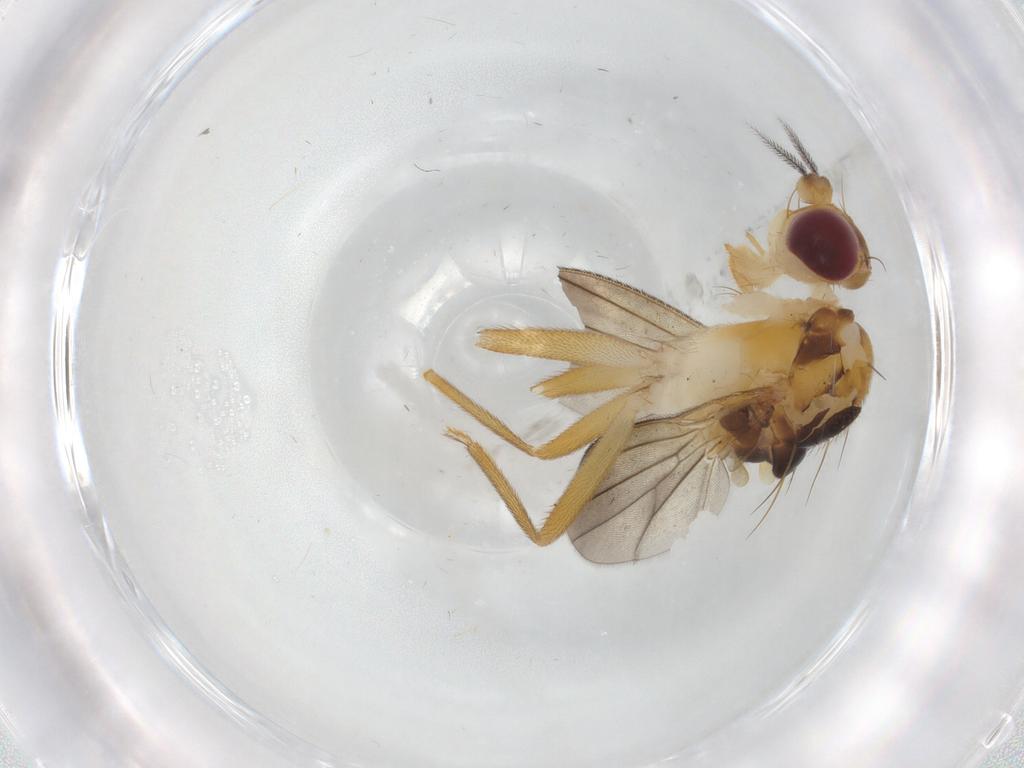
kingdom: Animalia
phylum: Arthropoda
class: Insecta
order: Diptera
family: Clusiidae
